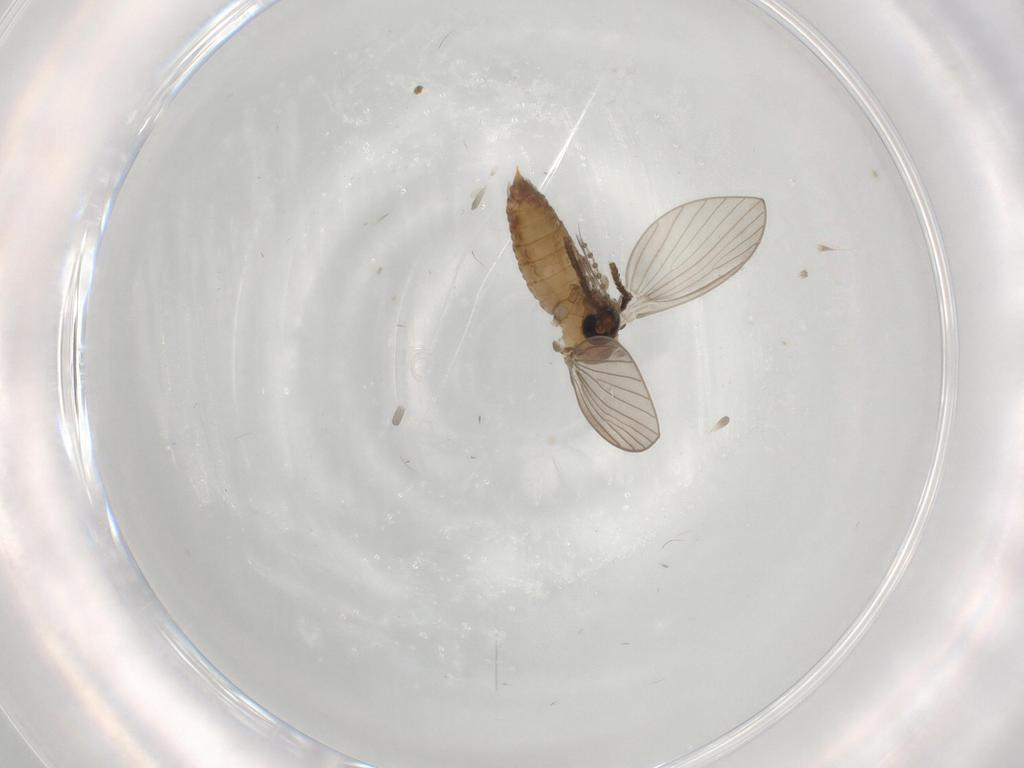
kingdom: Animalia
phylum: Arthropoda
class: Insecta
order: Diptera
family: Psychodidae
